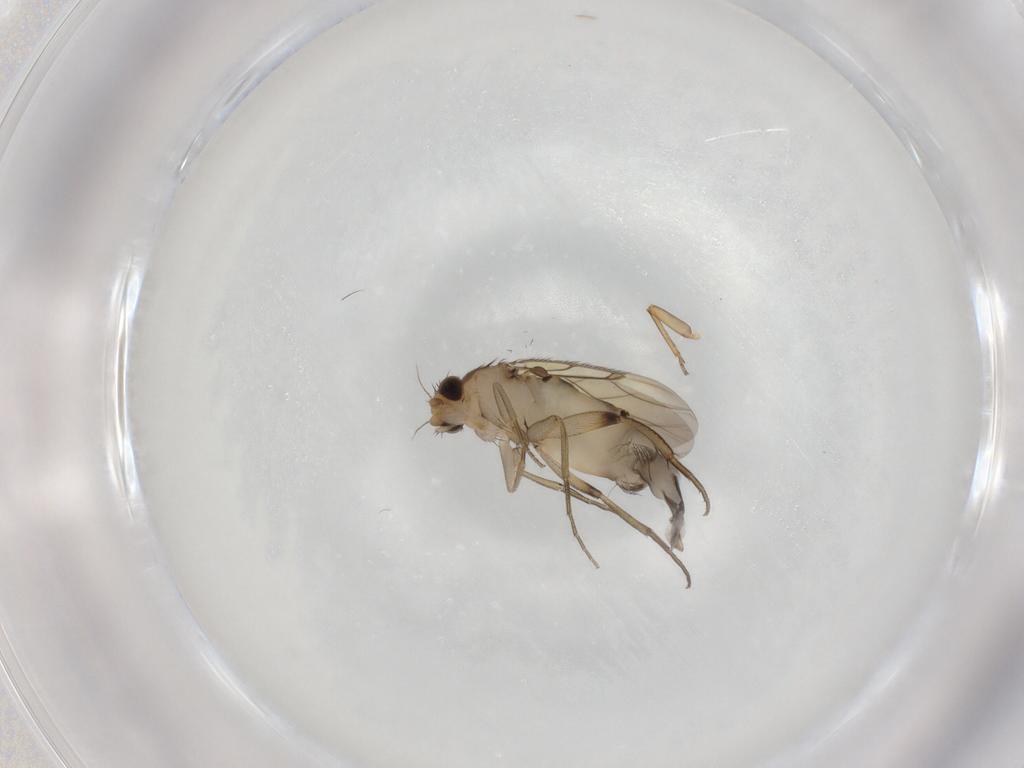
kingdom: Animalia
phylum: Arthropoda
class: Insecta
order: Diptera
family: Phoridae
